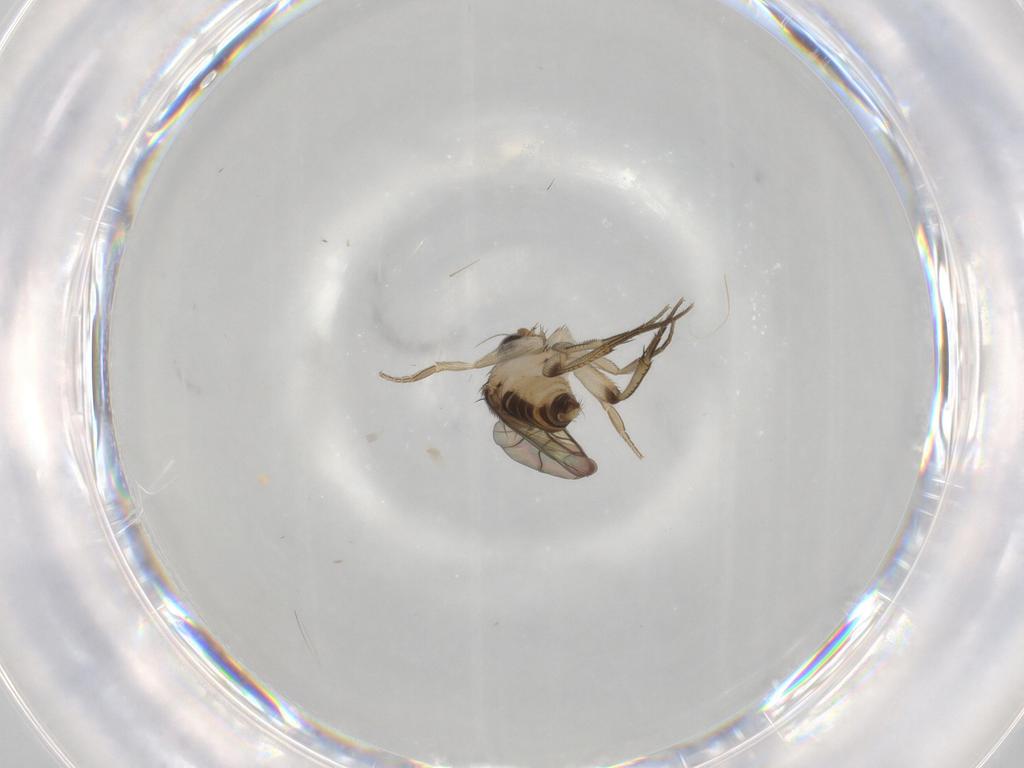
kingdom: Animalia
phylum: Arthropoda
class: Insecta
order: Diptera
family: Phoridae
